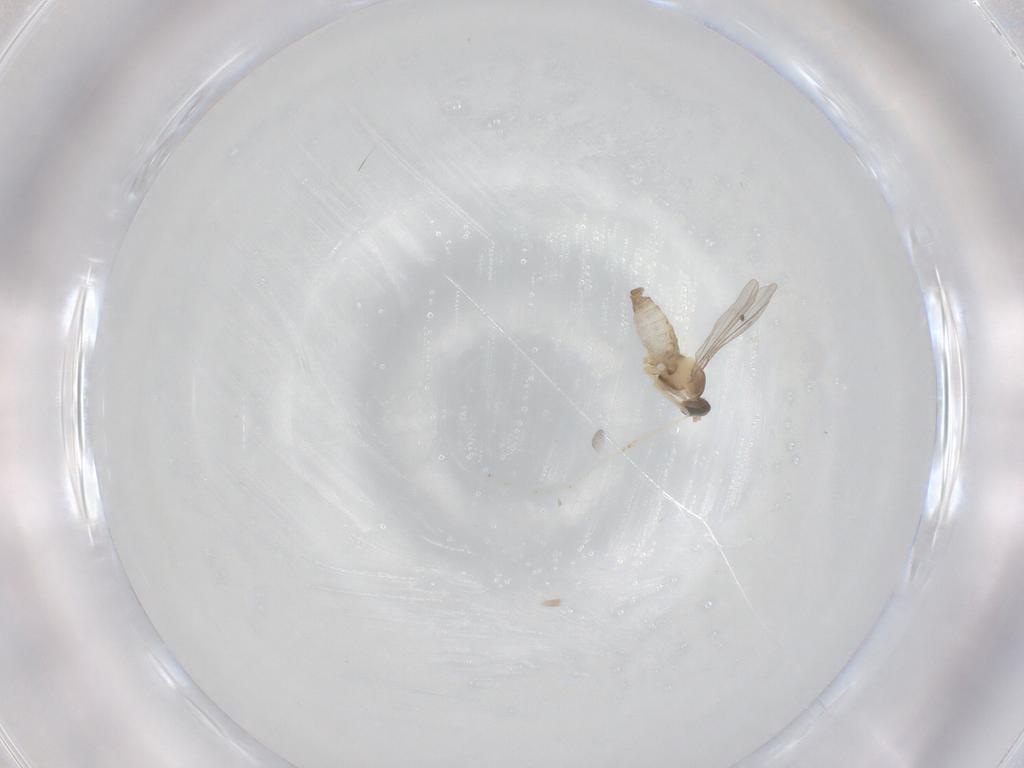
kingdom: Animalia
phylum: Arthropoda
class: Insecta
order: Diptera
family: Cecidomyiidae
